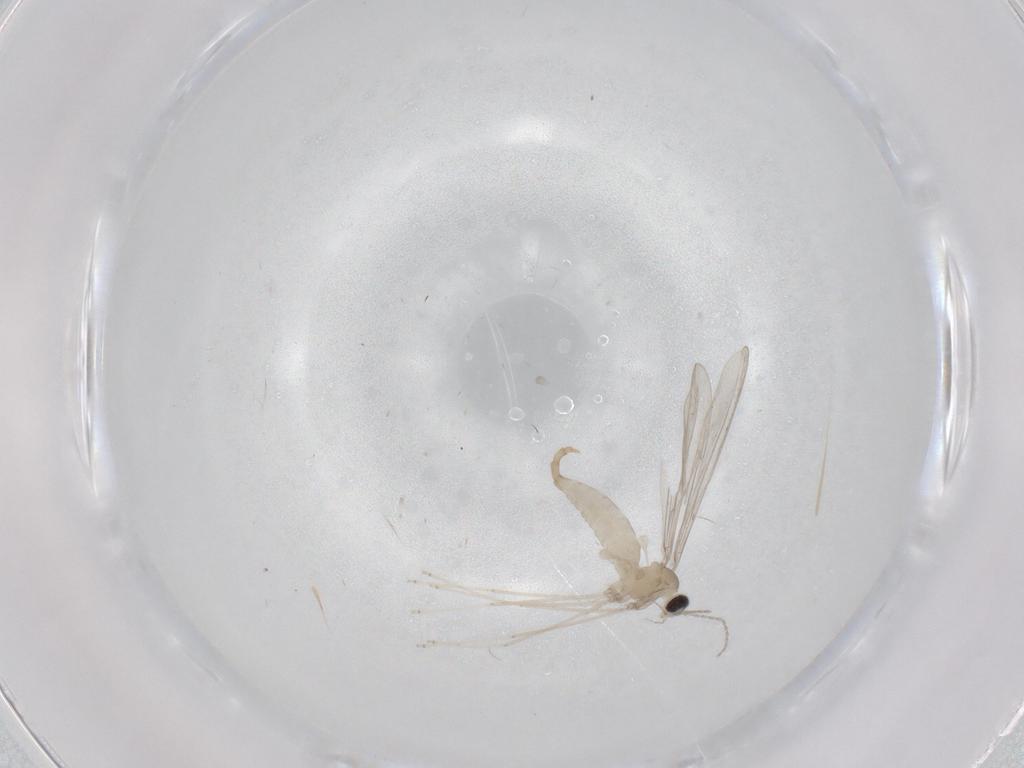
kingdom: Animalia
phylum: Arthropoda
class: Insecta
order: Diptera
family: Cecidomyiidae
